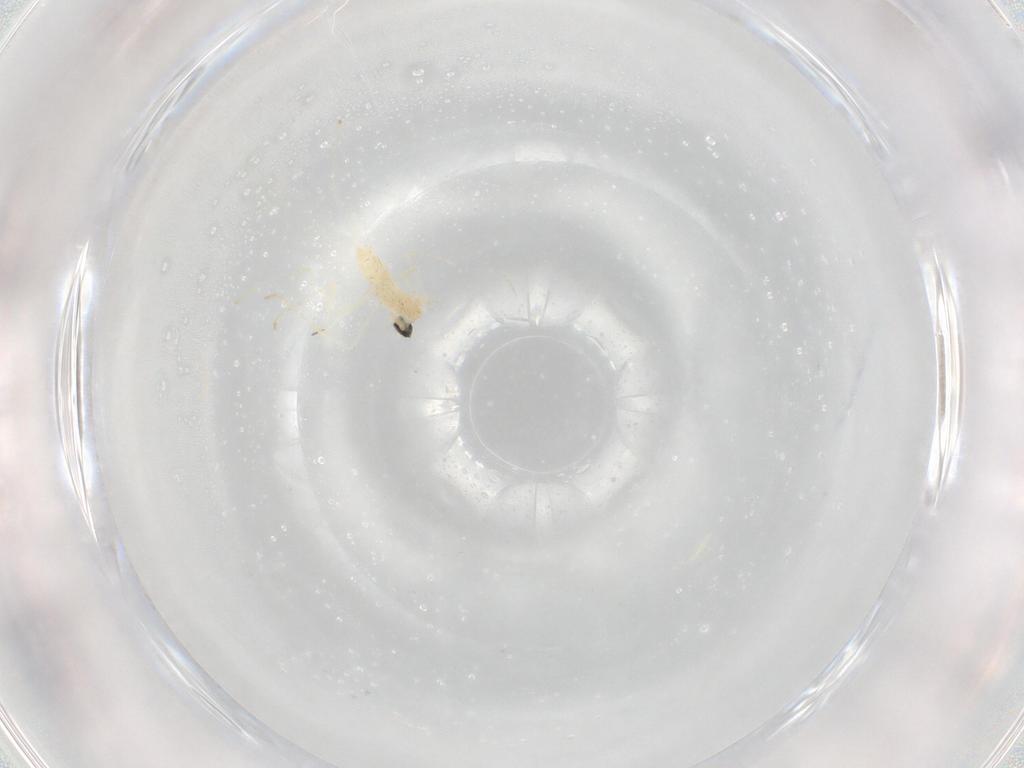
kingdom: Animalia
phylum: Arthropoda
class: Insecta
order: Diptera
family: Cecidomyiidae
